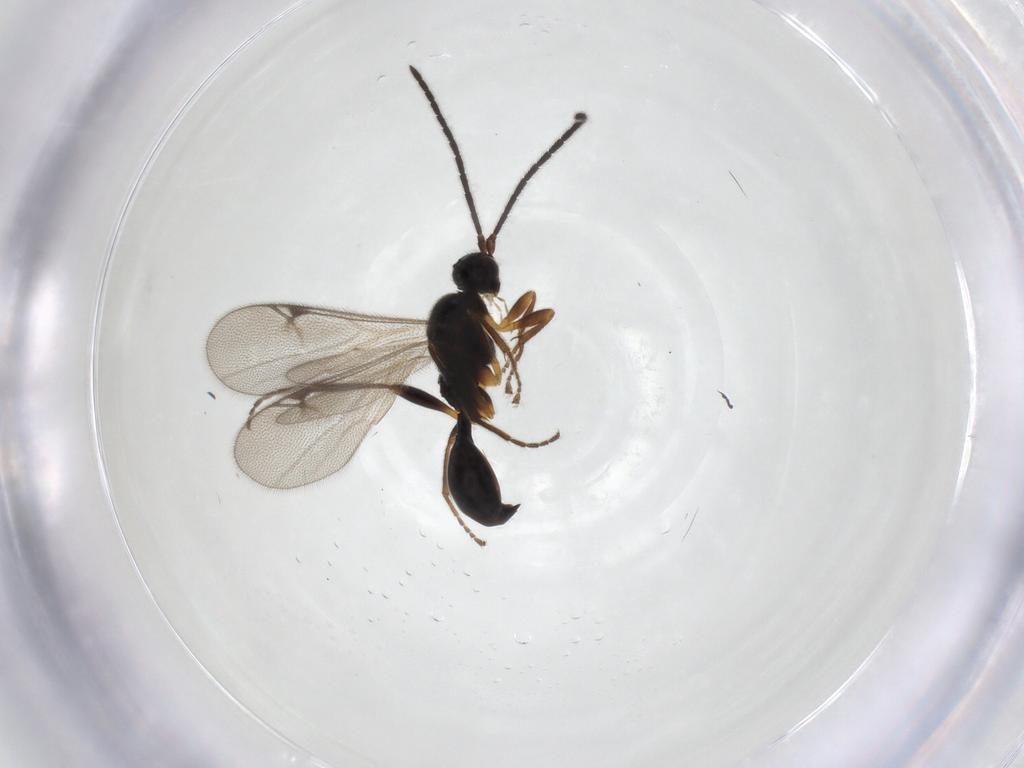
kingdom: Animalia
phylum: Arthropoda
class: Insecta
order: Hymenoptera
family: Proctotrupidae
